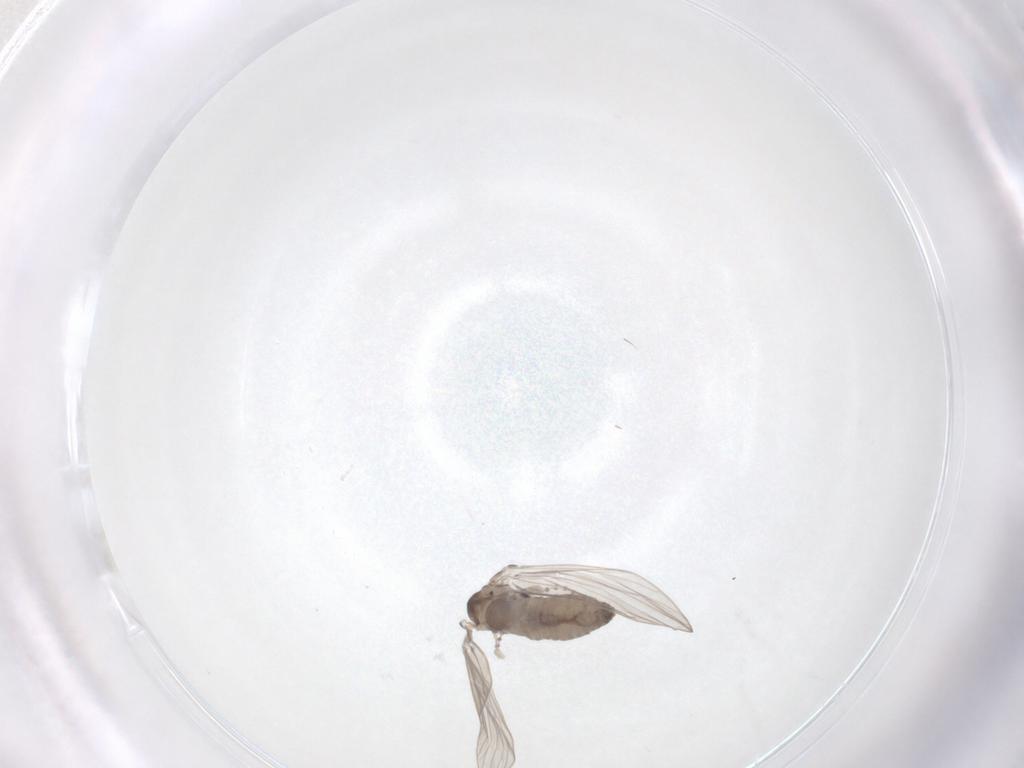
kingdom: Animalia
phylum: Arthropoda
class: Insecta
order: Diptera
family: Psychodidae
